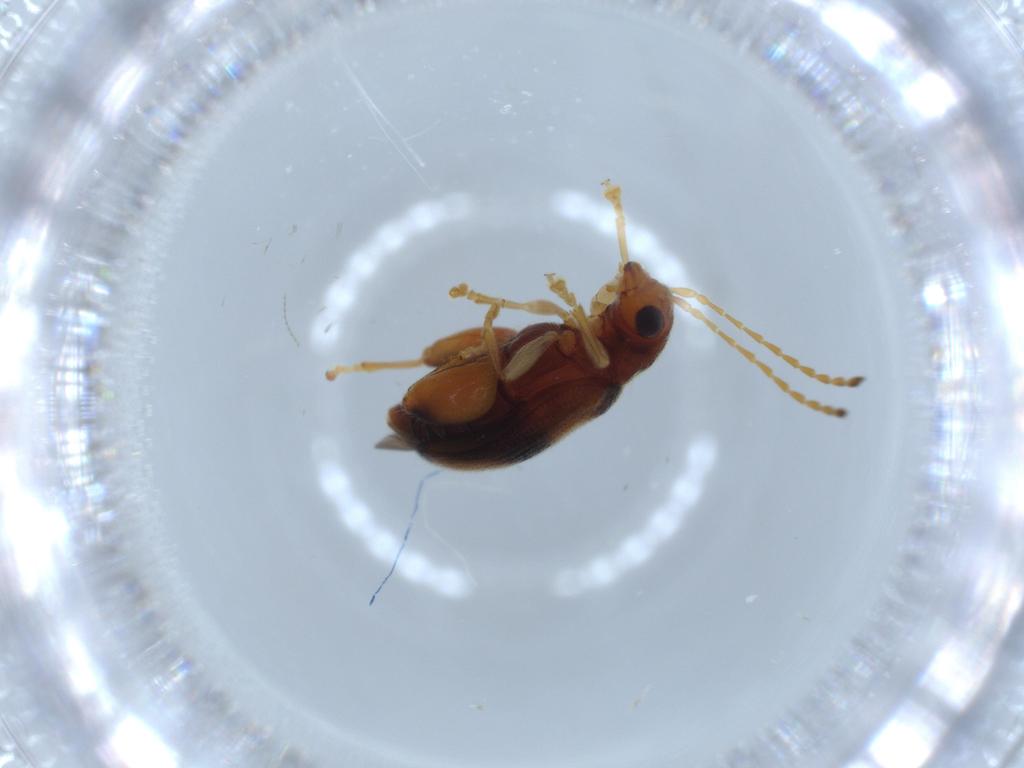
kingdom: Animalia
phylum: Arthropoda
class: Insecta
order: Coleoptera
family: Chrysomelidae
